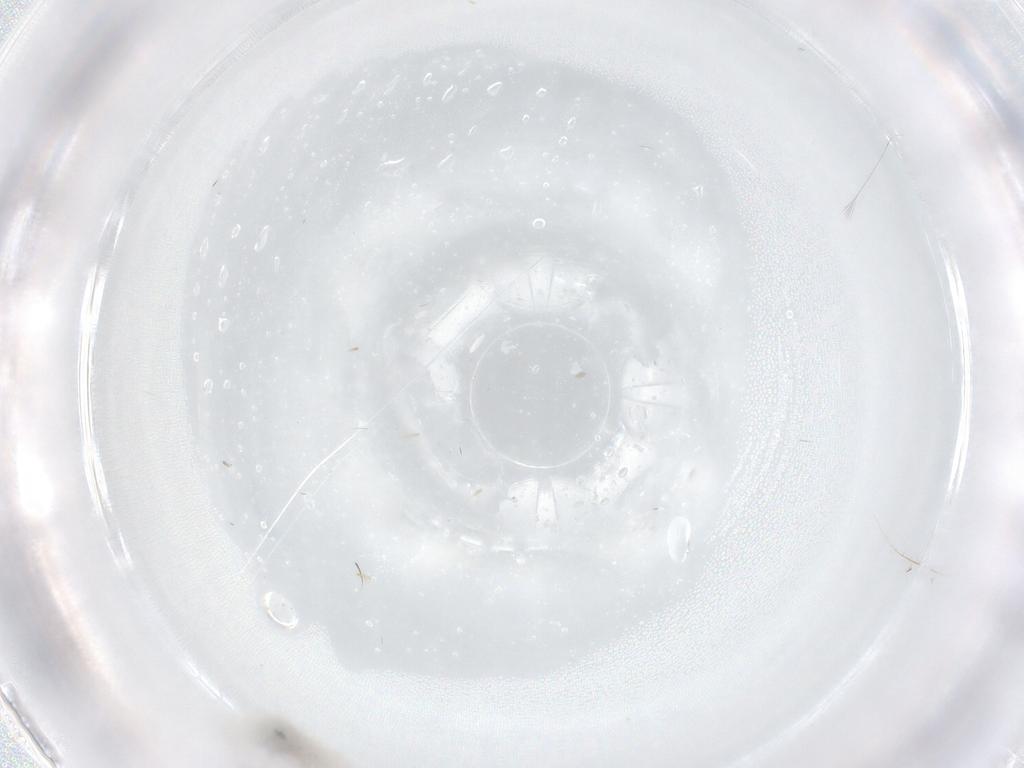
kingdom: Animalia
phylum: Arthropoda
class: Insecta
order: Diptera
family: Cecidomyiidae
